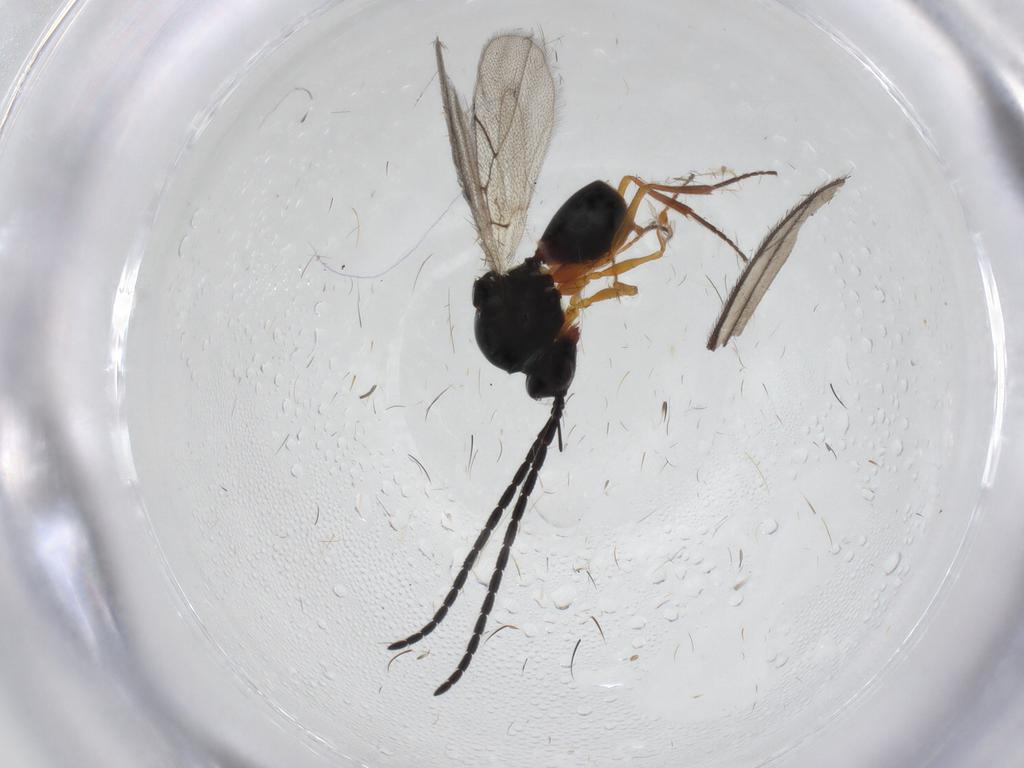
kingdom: Animalia
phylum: Arthropoda
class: Insecta
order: Hymenoptera
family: Figitidae
